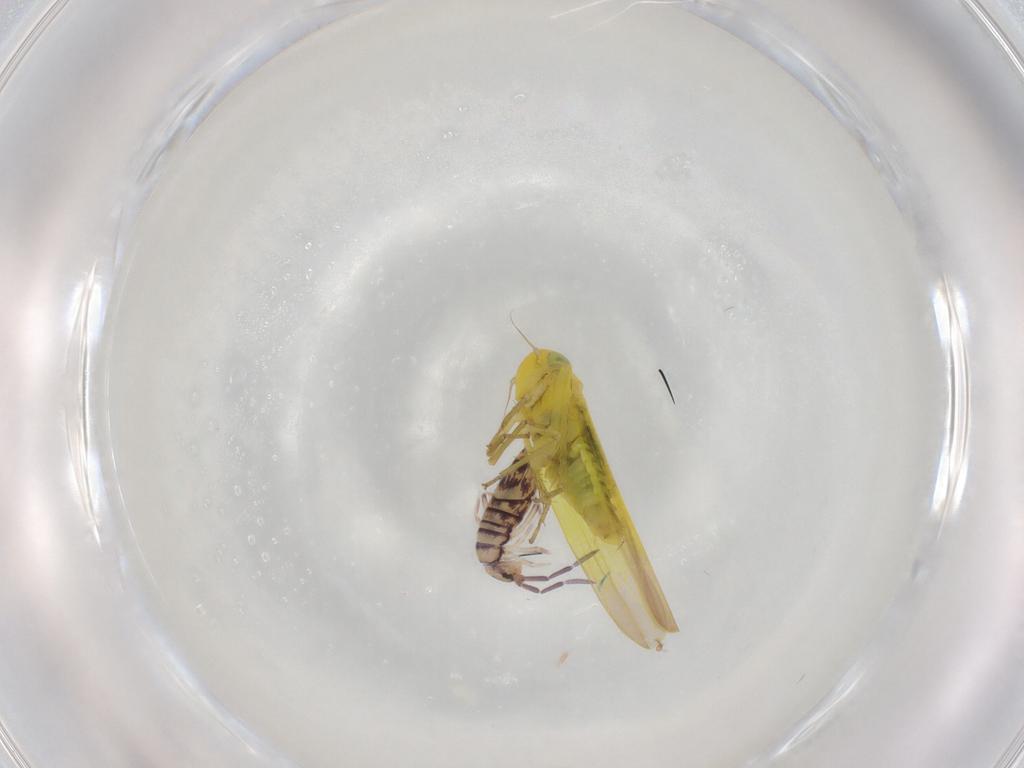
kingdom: Animalia
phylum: Arthropoda
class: Collembola
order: Entomobryomorpha
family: Entomobryidae
